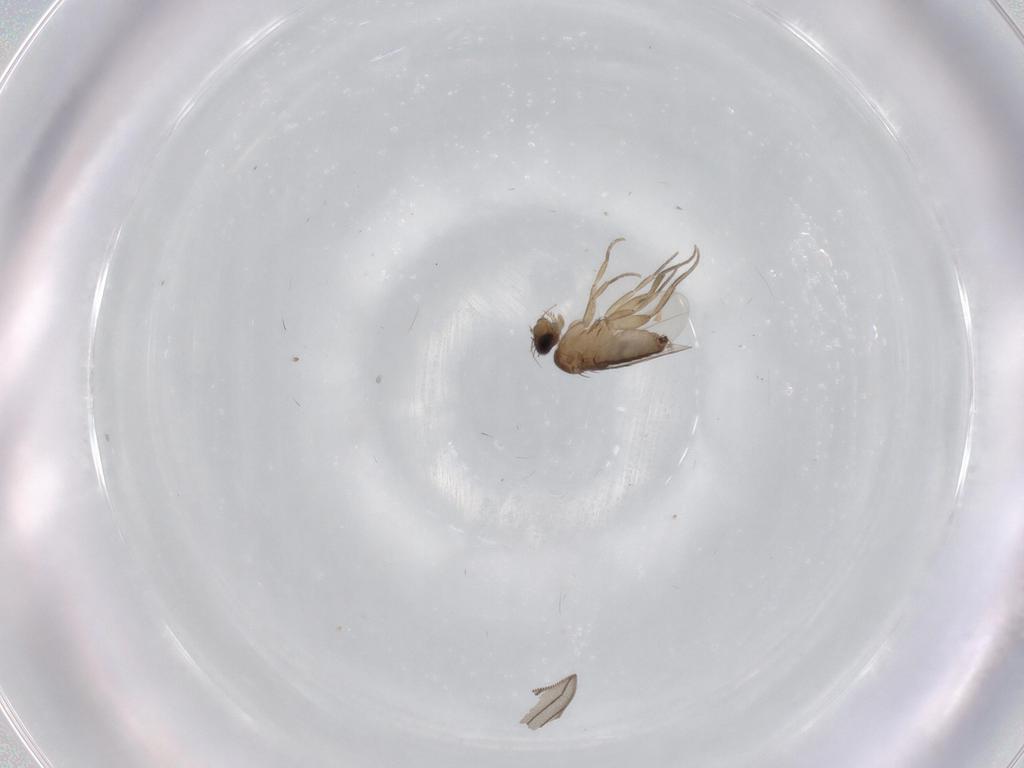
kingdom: Animalia
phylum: Arthropoda
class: Insecta
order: Diptera
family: Phoridae
